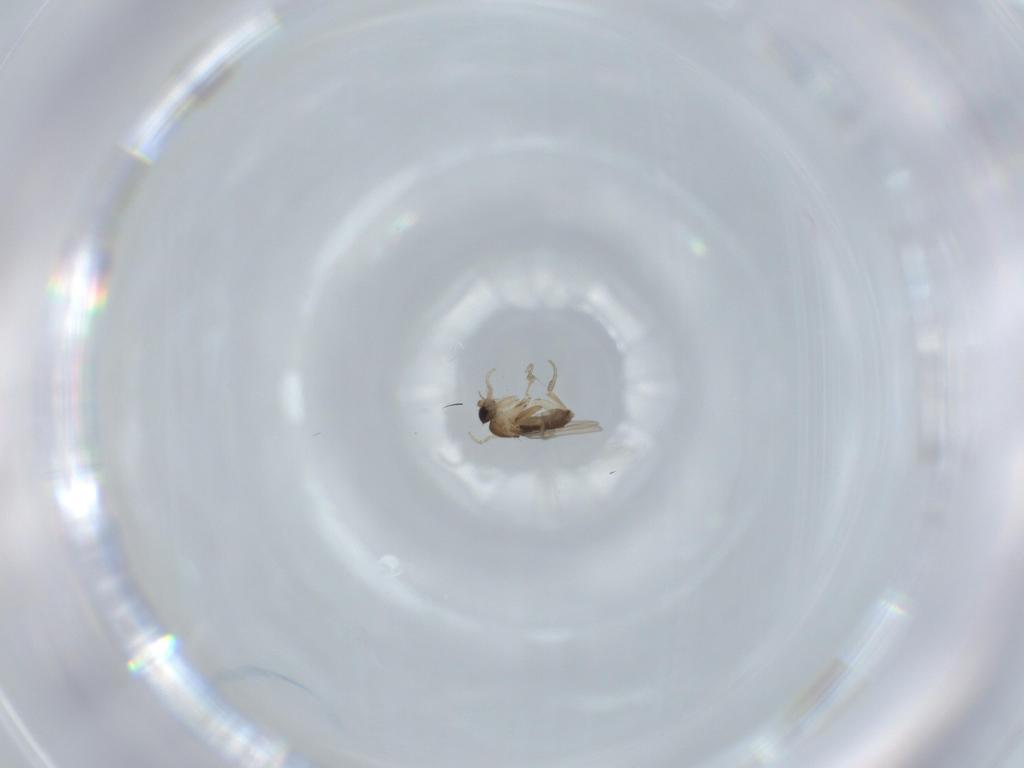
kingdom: Animalia
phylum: Arthropoda
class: Insecta
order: Diptera
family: Phoridae
